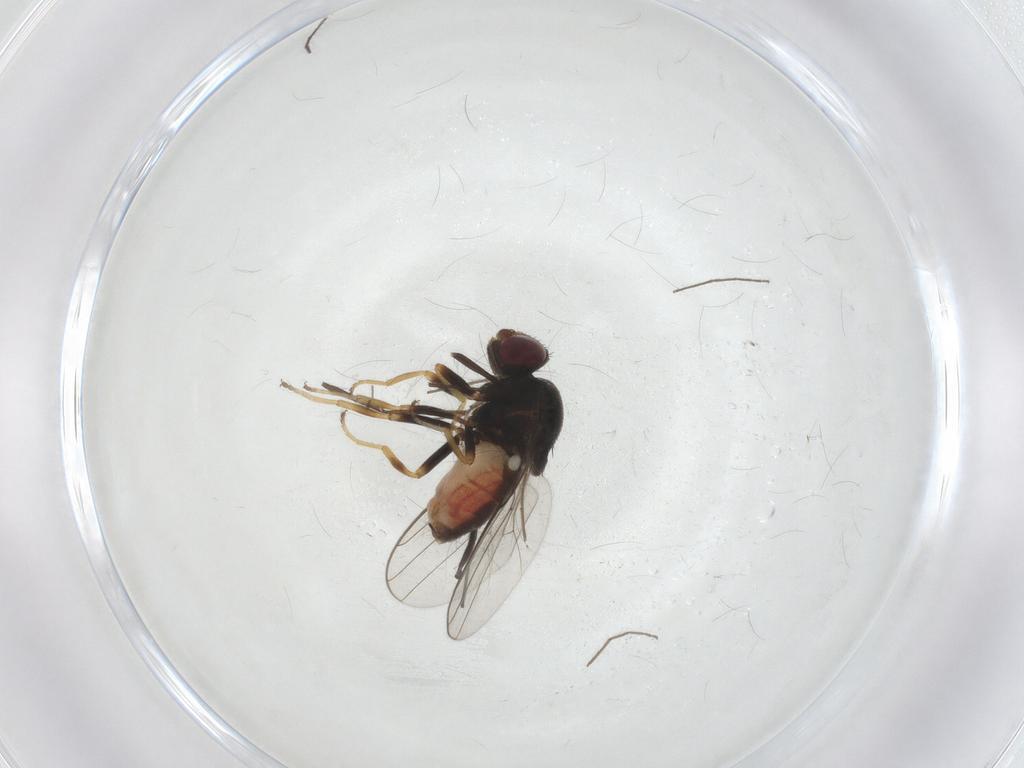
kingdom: Animalia
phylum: Arthropoda
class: Insecta
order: Diptera
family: Chloropidae
